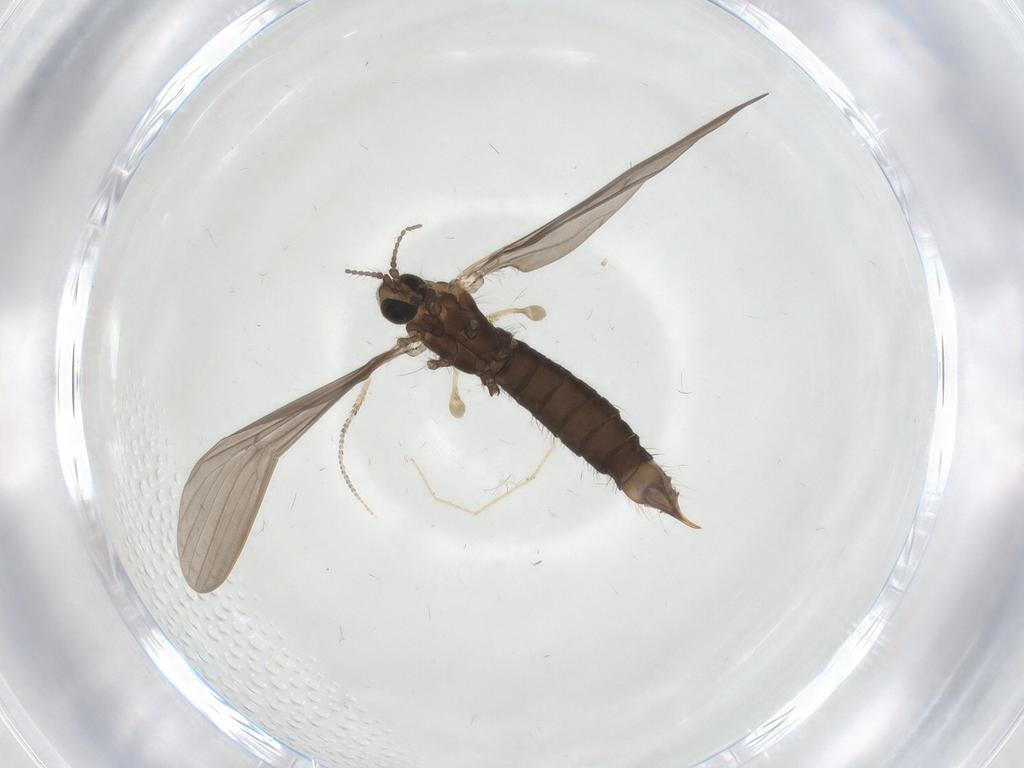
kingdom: Animalia
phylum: Arthropoda
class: Insecta
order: Diptera
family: Limoniidae
